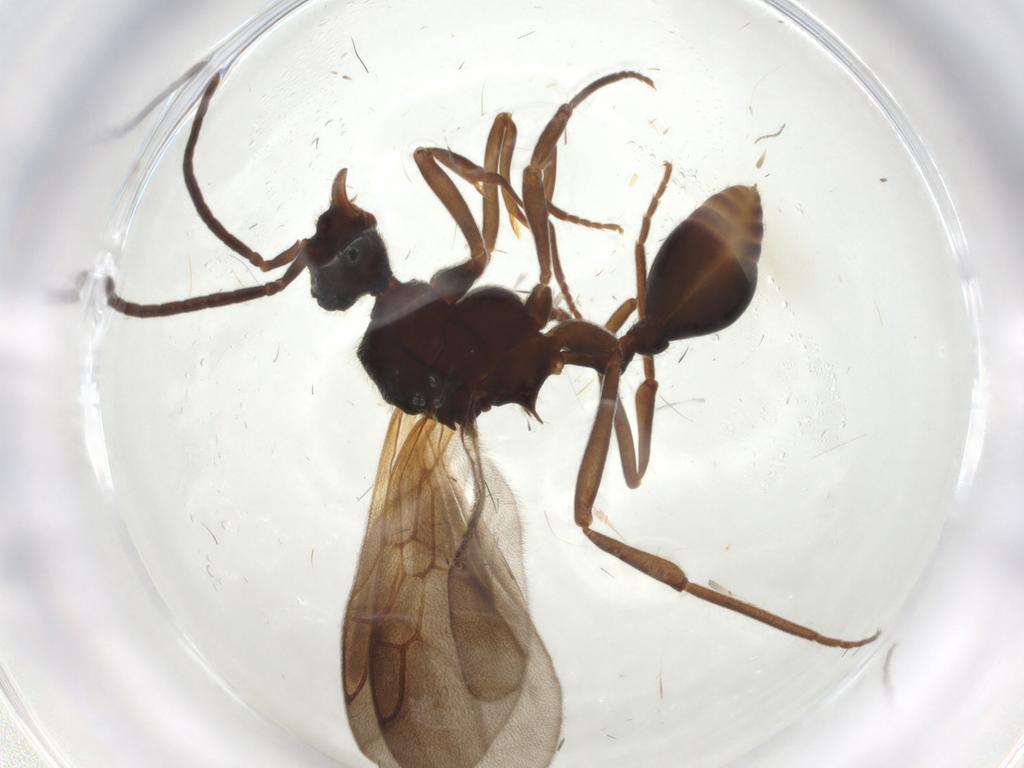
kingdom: Animalia
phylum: Arthropoda
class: Insecta
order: Hymenoptera
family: Formicidae
